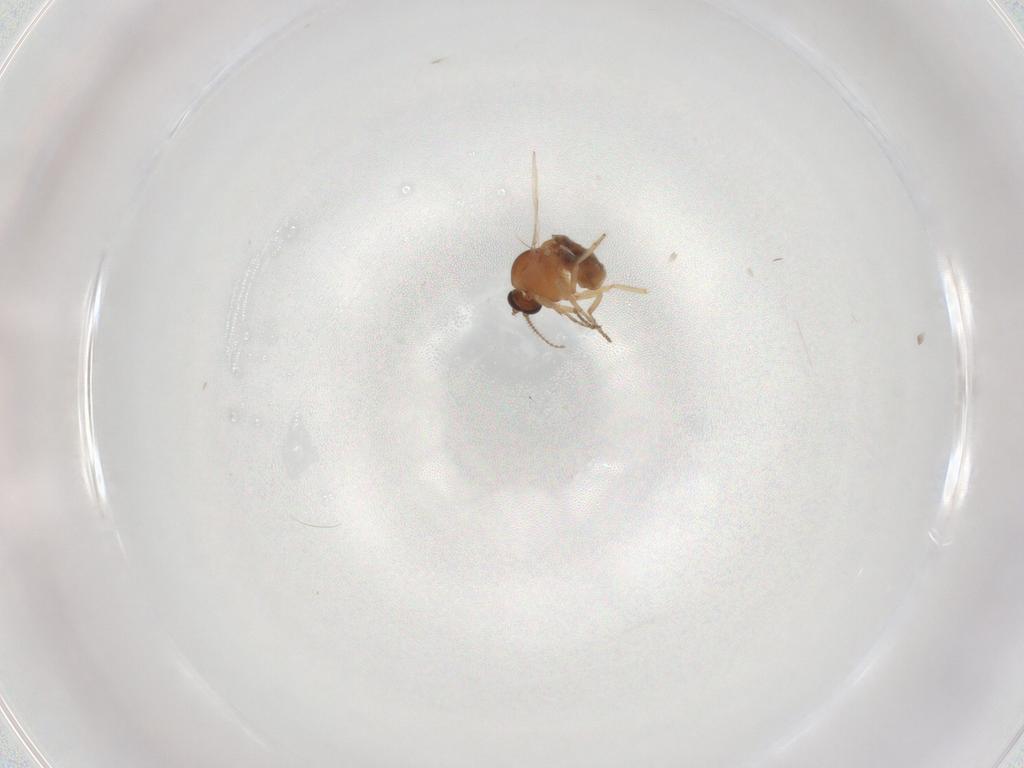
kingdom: Animalia
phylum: Arthropoda
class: Insecta
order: Diptera
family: Ceratopogonidae
